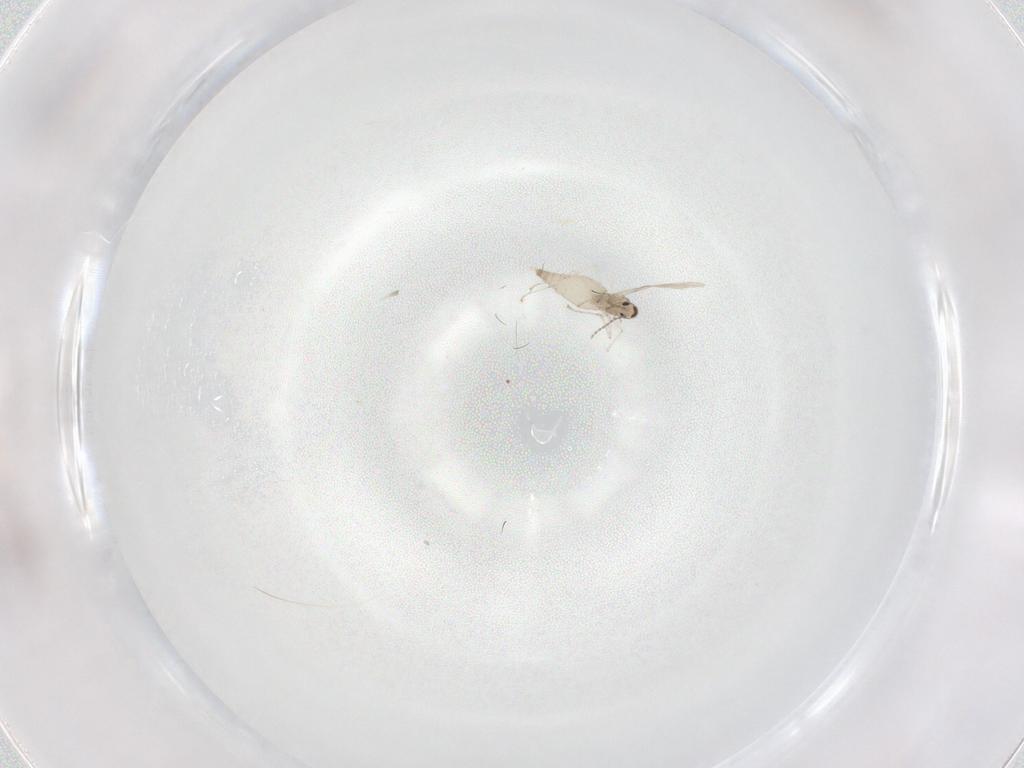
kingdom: Animalia
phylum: Arthropoda
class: Insecta
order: Diptera
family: Cecidomyiidae
